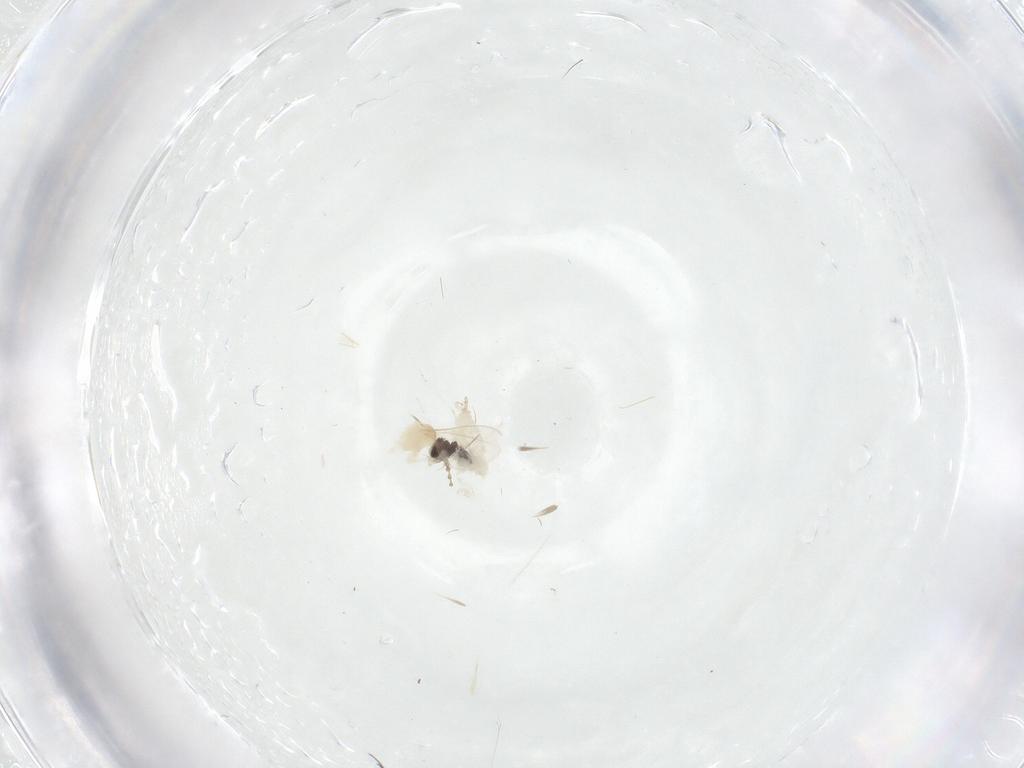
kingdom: Animalia
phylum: Arthropoda
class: Insecta
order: Diptera
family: Cecidomyiidae
